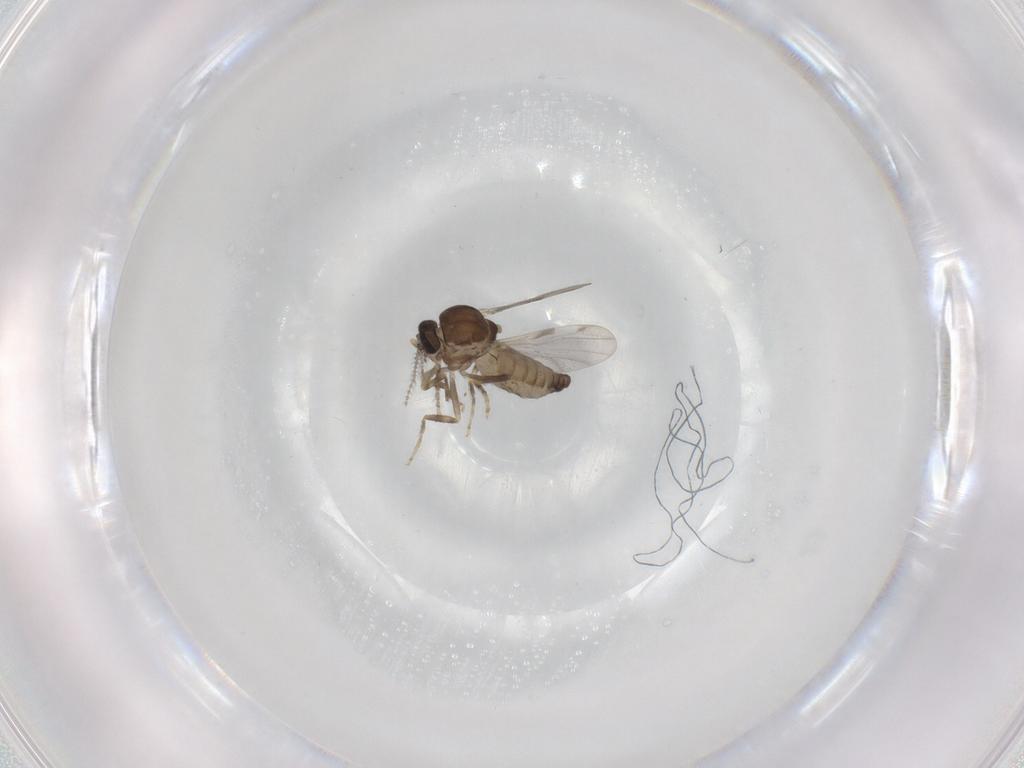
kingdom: Animalia
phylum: Arthropoda
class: Insecta
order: Diptera
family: Ceratopogonidae
